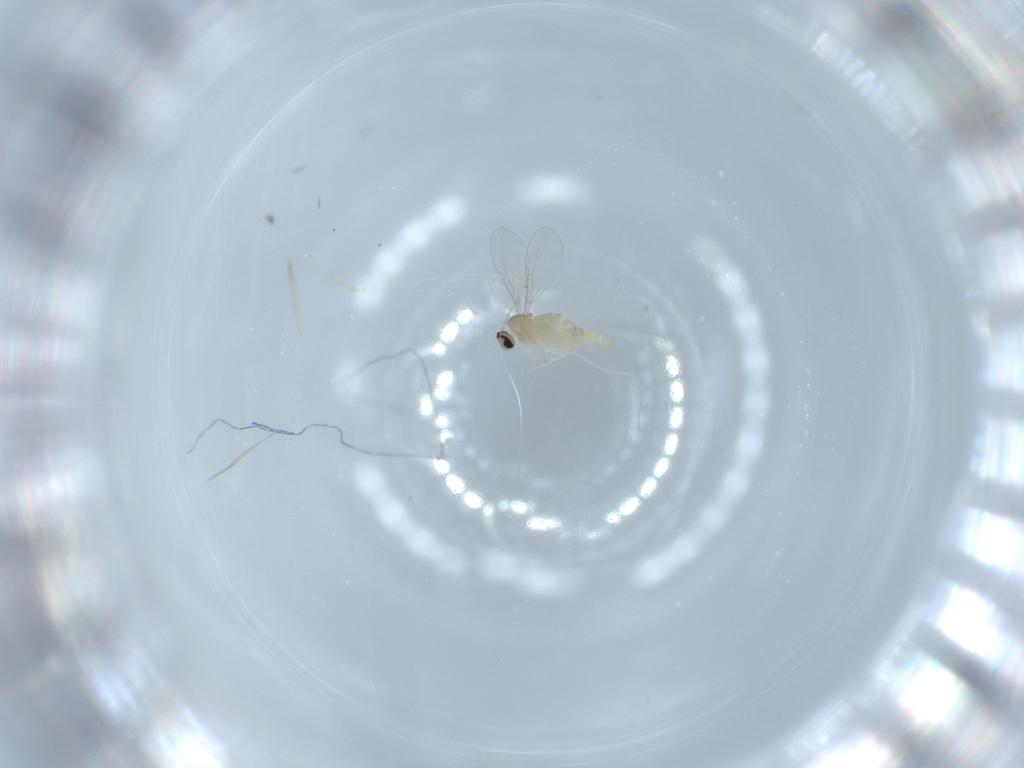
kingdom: Animalia
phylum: Arthropoda
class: Insecta
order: Diptera
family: Cecidomyiidae
